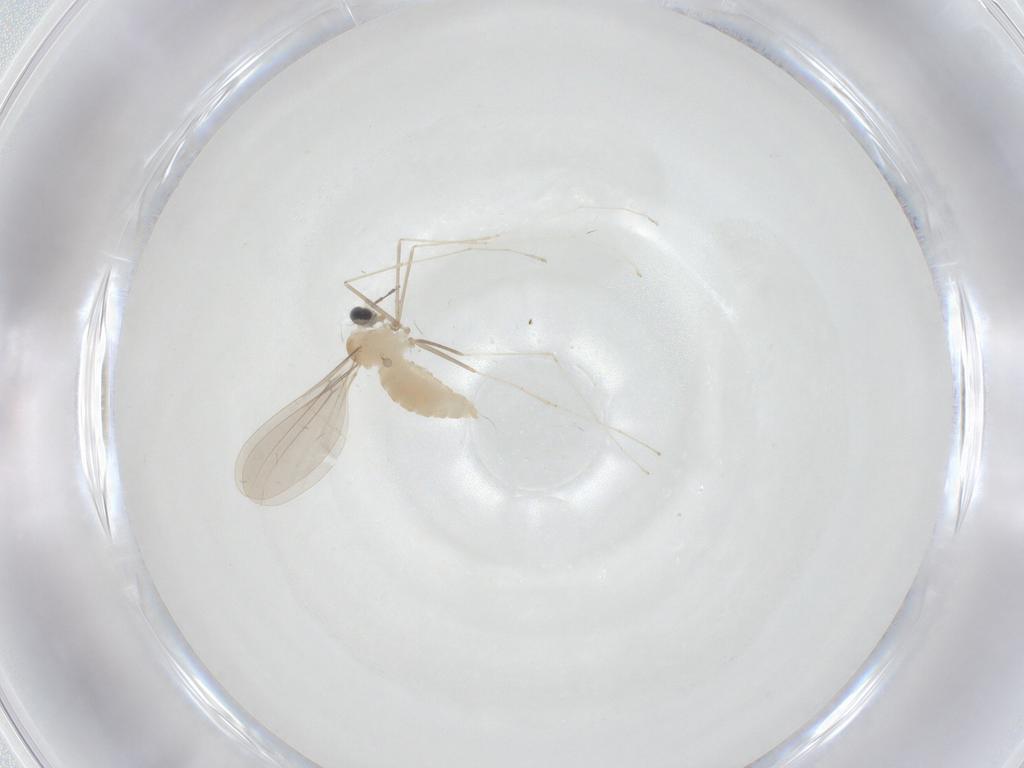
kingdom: Animalia
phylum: Arthropoda
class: Insecta
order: Diptera
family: Cecidomyiidae
